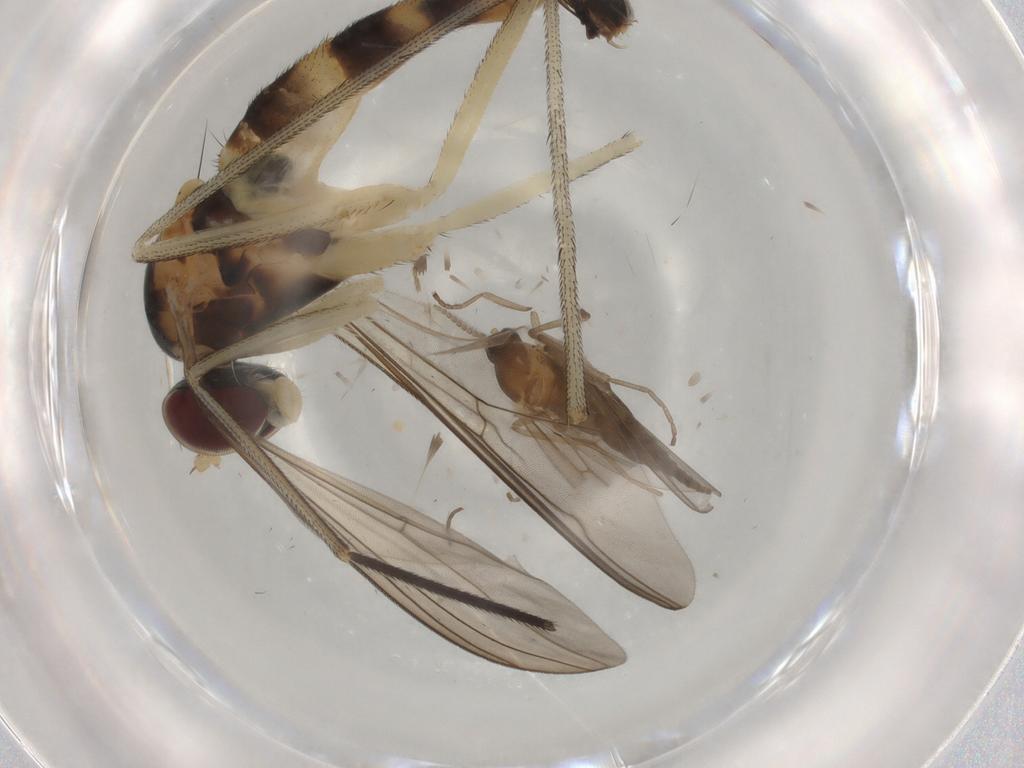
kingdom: Animalia
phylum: Arthropoda
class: Insecta
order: Diptera
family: Cecidomyiidae
